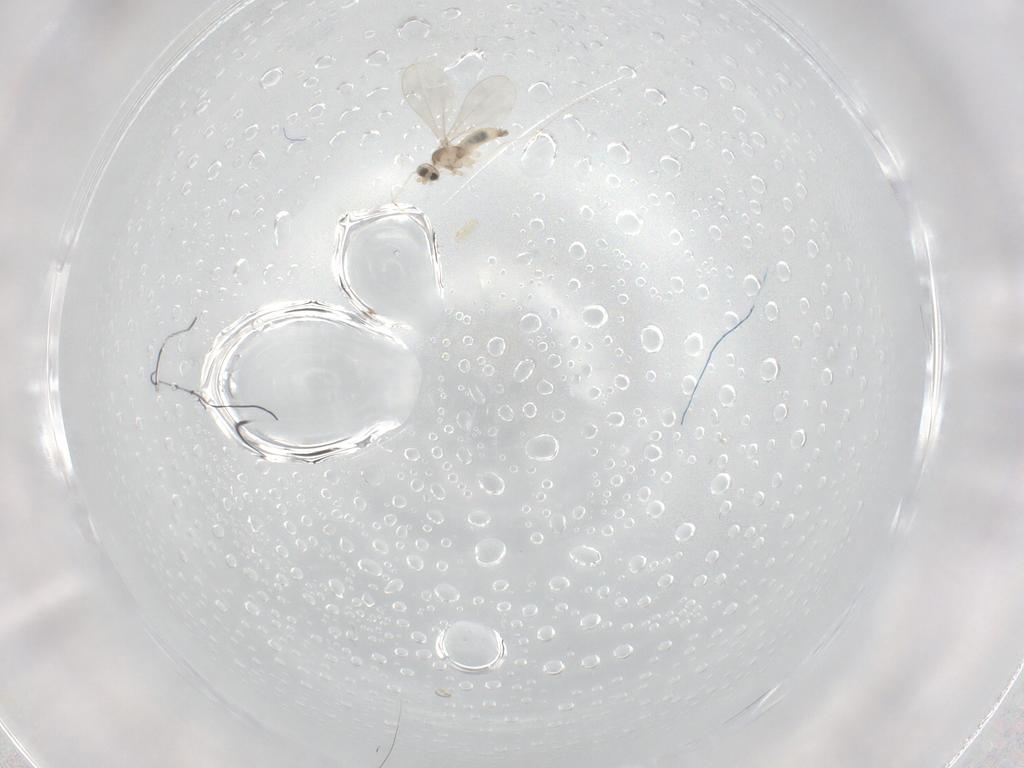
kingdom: Animalia
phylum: Arthropoda
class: Insecta
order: Diptera
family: Cecidomyiidae
